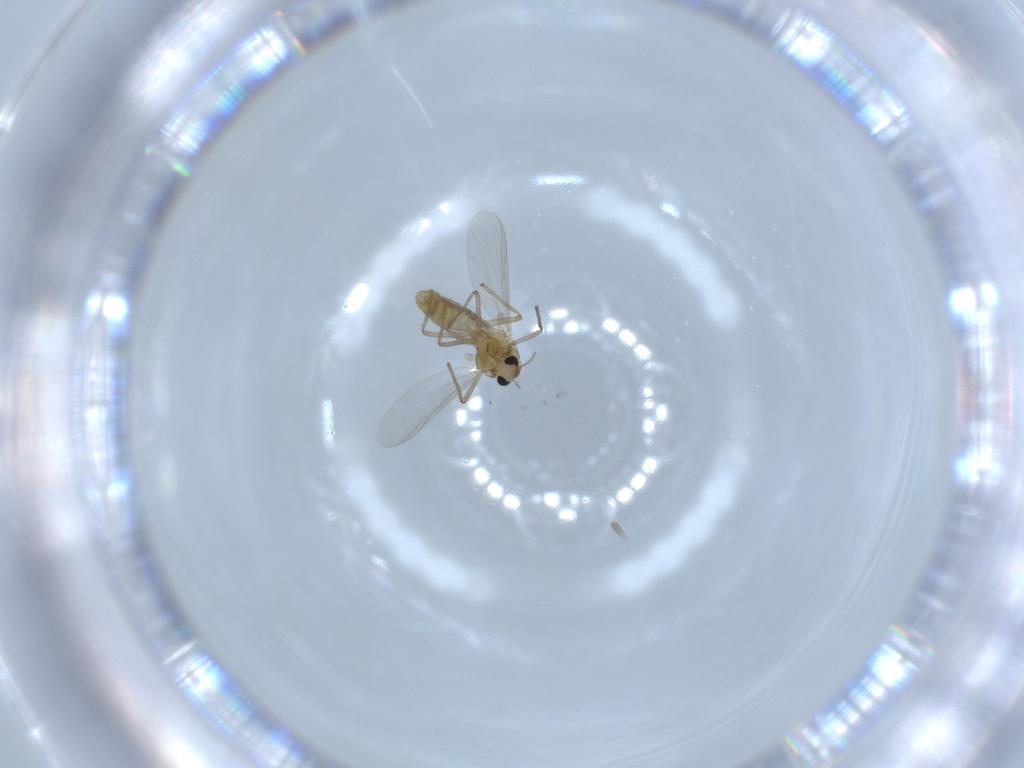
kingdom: Animalia
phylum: Arthropoda
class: Insecta
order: Diptera
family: Chironomidae
